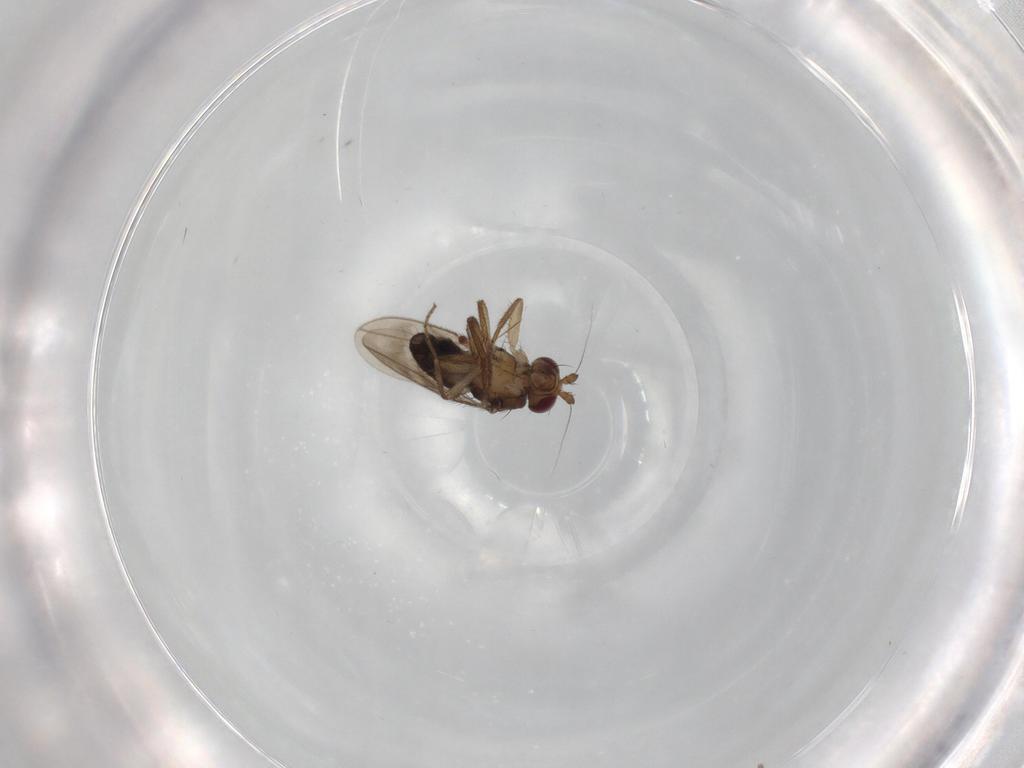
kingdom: Animalia
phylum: Arthropoda
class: Insecta
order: Diptera
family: Sphaeroceridae
